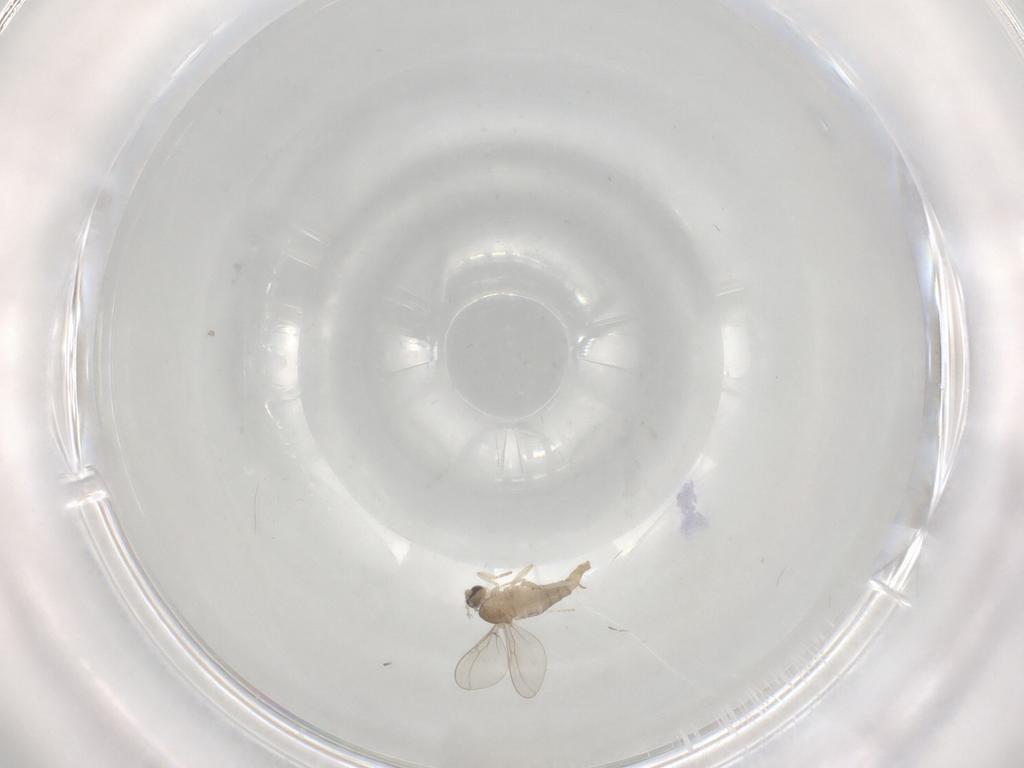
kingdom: Animalia
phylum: Arthropoda
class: Insecta
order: Diptera
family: Cecidomyiidae
